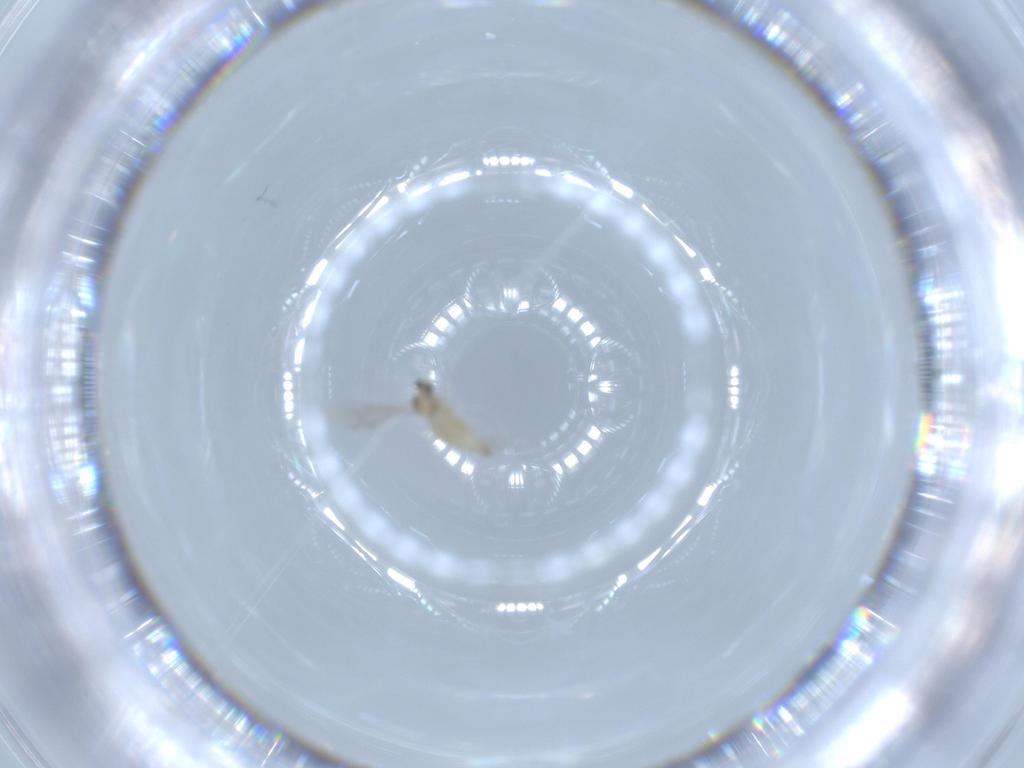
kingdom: Animalia
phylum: Arthropoda
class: Insecta
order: Diptera
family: Cecidomyiidae
